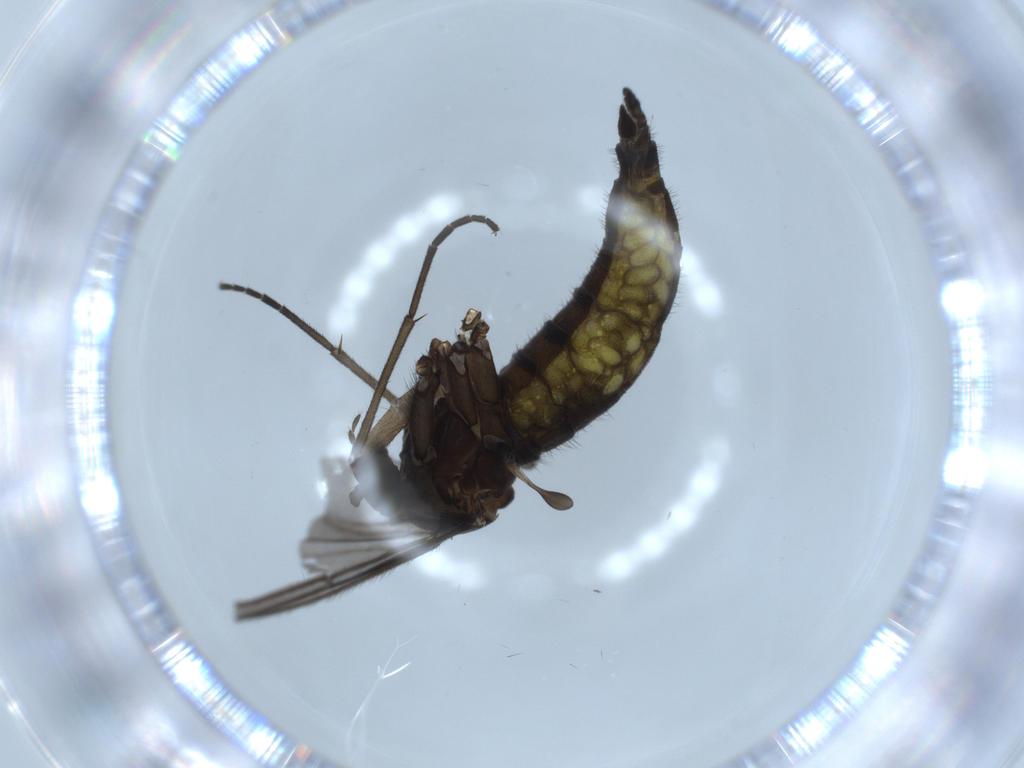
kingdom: Animalia
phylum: Arthropoda
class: Insecta
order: Diptera
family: Sciaridae
